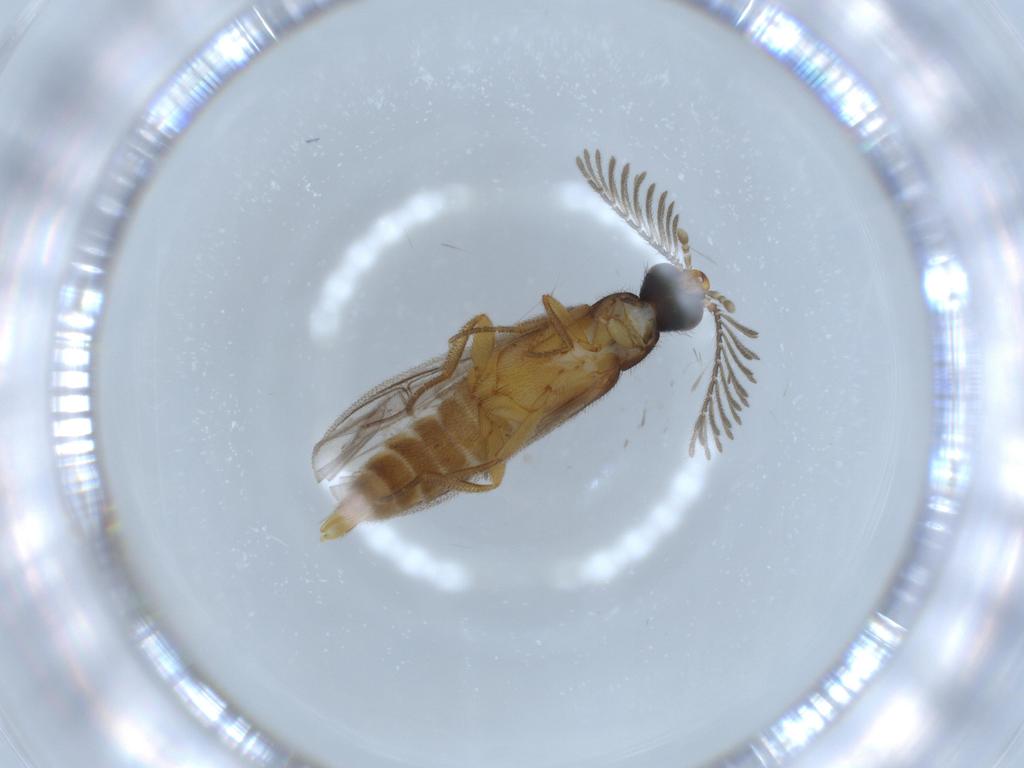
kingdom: Animalia
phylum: Arthropoda
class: Insecta
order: Coleoptera
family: Chrysomelidae
